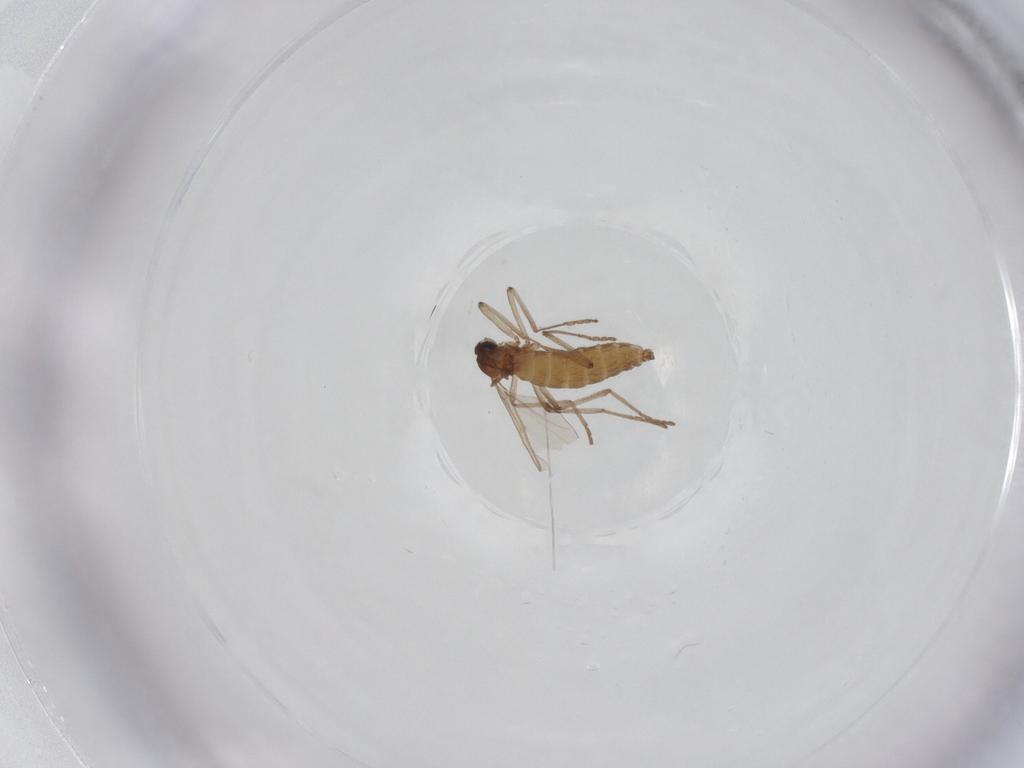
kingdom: Animalia
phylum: Arthropoda
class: Insecta
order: Diptera
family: Cecidomyiidae
